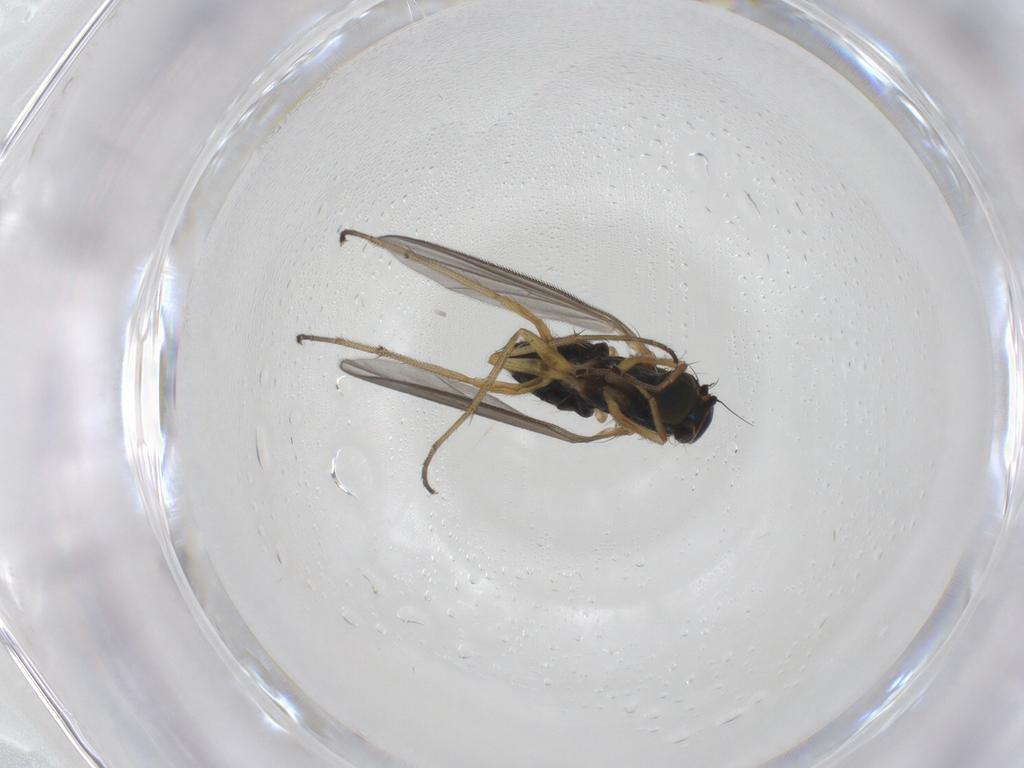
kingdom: Animalia
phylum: Arthropoda
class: Insecta
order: Diptera
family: Dolichopodidae
